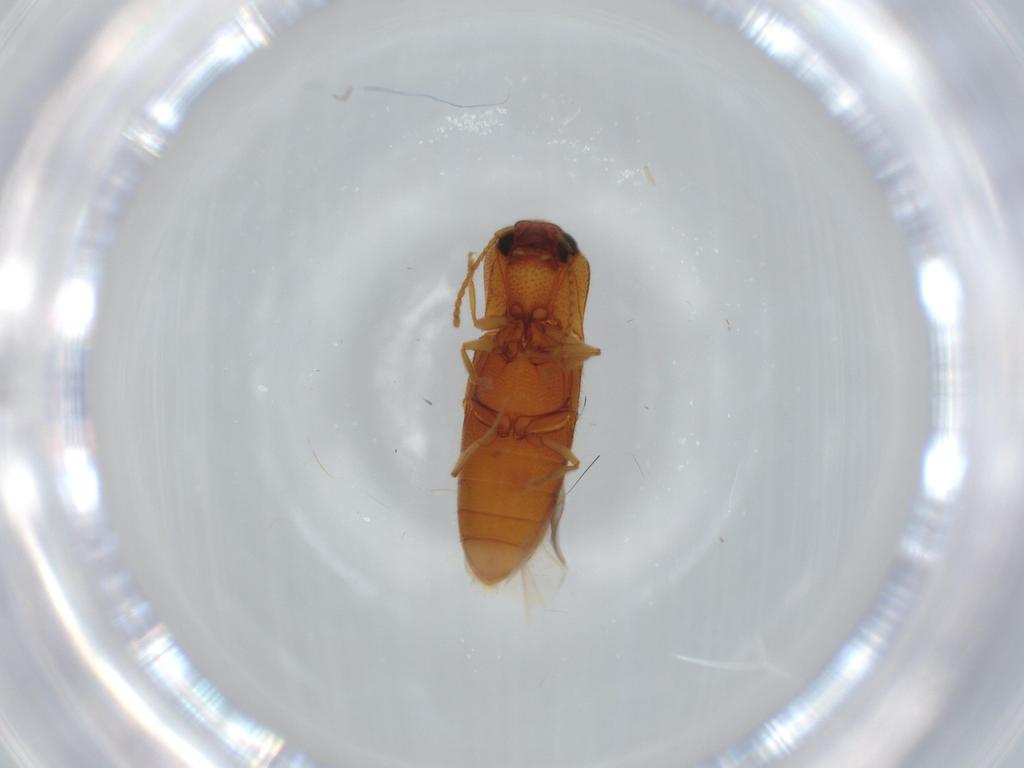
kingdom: Animalia
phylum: Arthropoda
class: Insecta
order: Coleoptera
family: Elateridae
